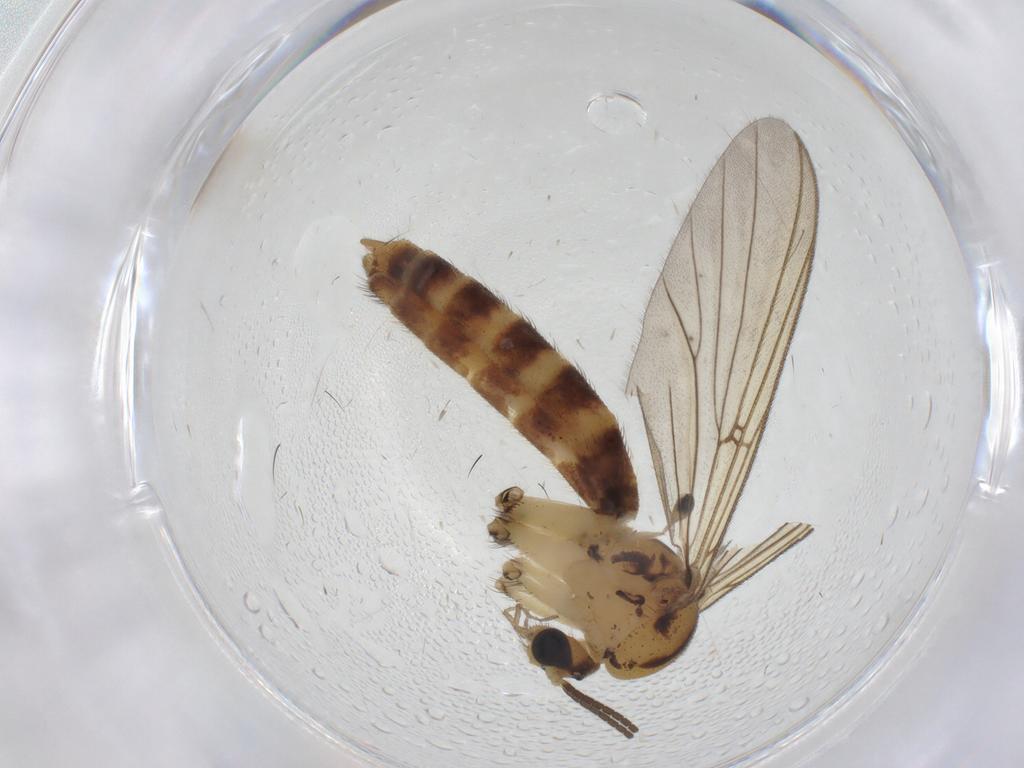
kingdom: Animalia
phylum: Arthropoda
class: Insecta
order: Diptera
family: Mycetophilidae
